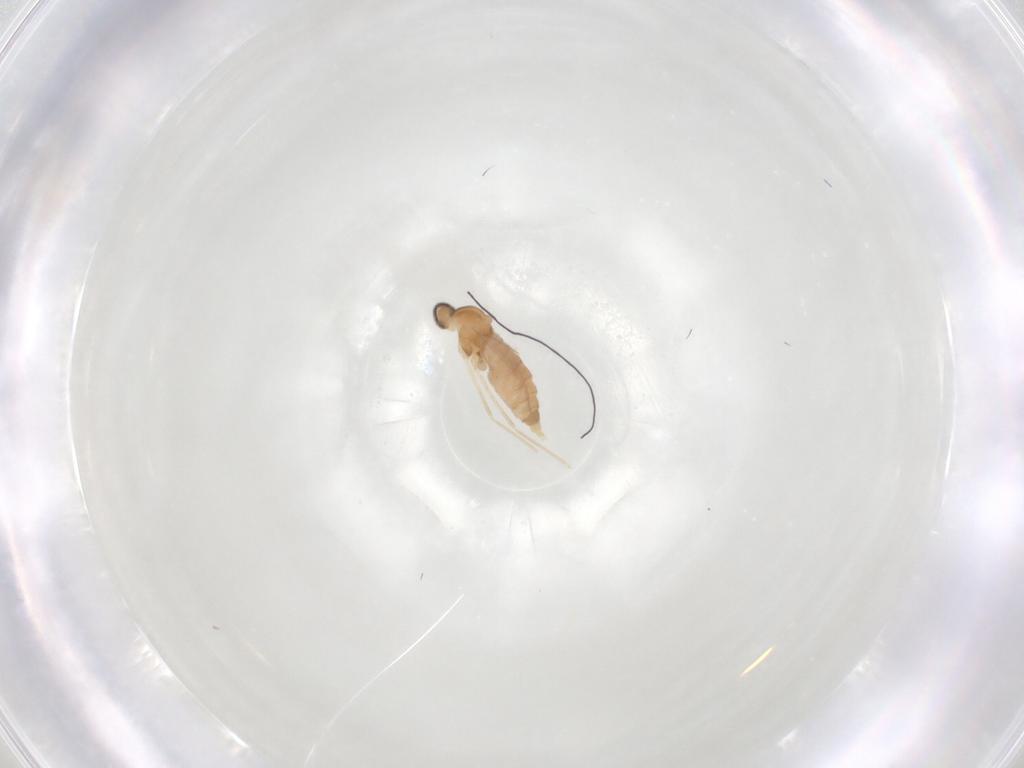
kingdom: Animalia
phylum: Arthropoda
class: Insecta
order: Diptera
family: Cecidomyiidae
